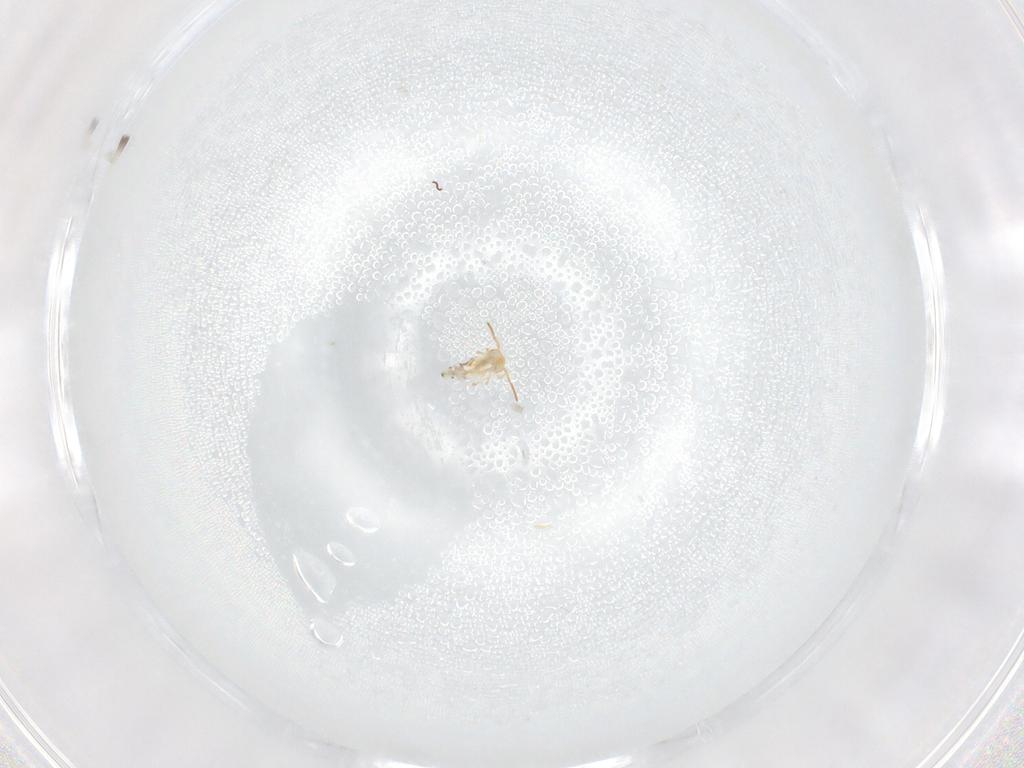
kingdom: Animalia
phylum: Arthropoda
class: Collembola
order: Symphypleona
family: Bourletiellidae
